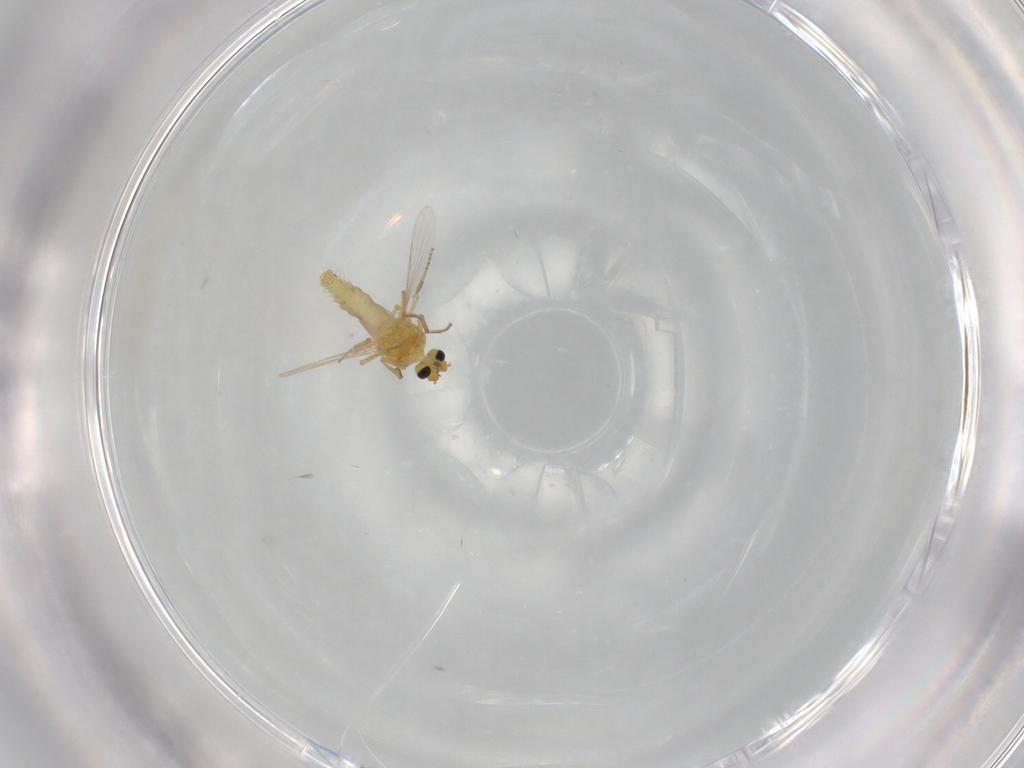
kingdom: Animalia
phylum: Arthropoda
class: Insecta
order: Diptera
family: Ceratopogonidae
